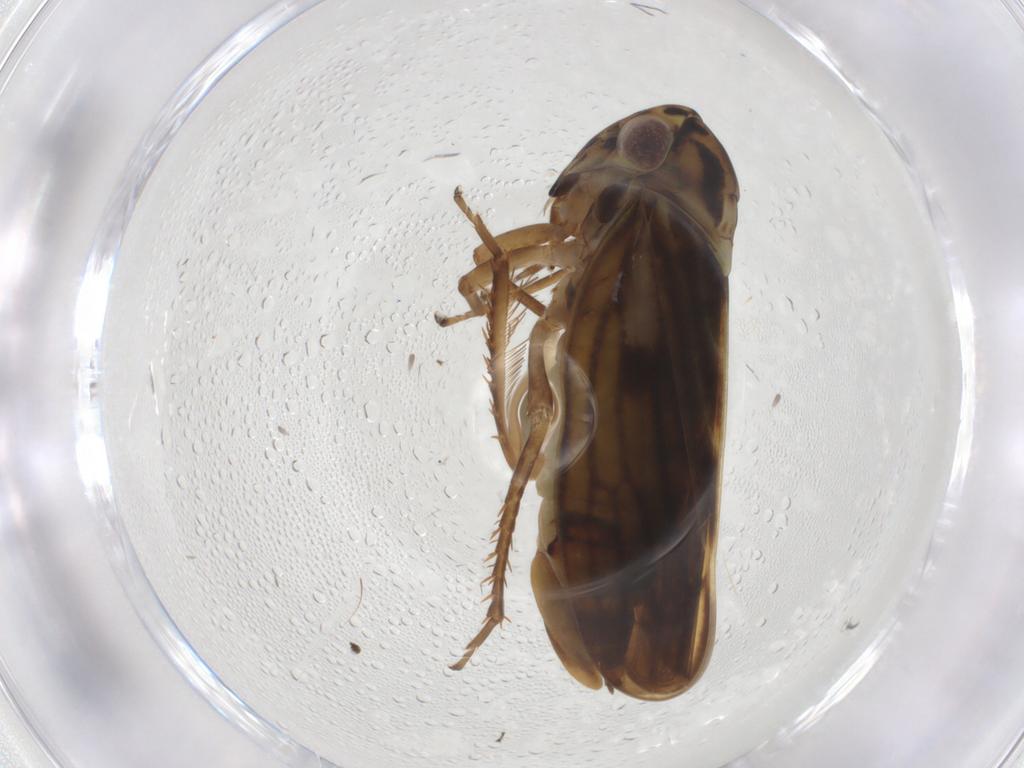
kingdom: Animalia
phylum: Arthropoda
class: Insecta
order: Hemiptera
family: Cicadellidae
